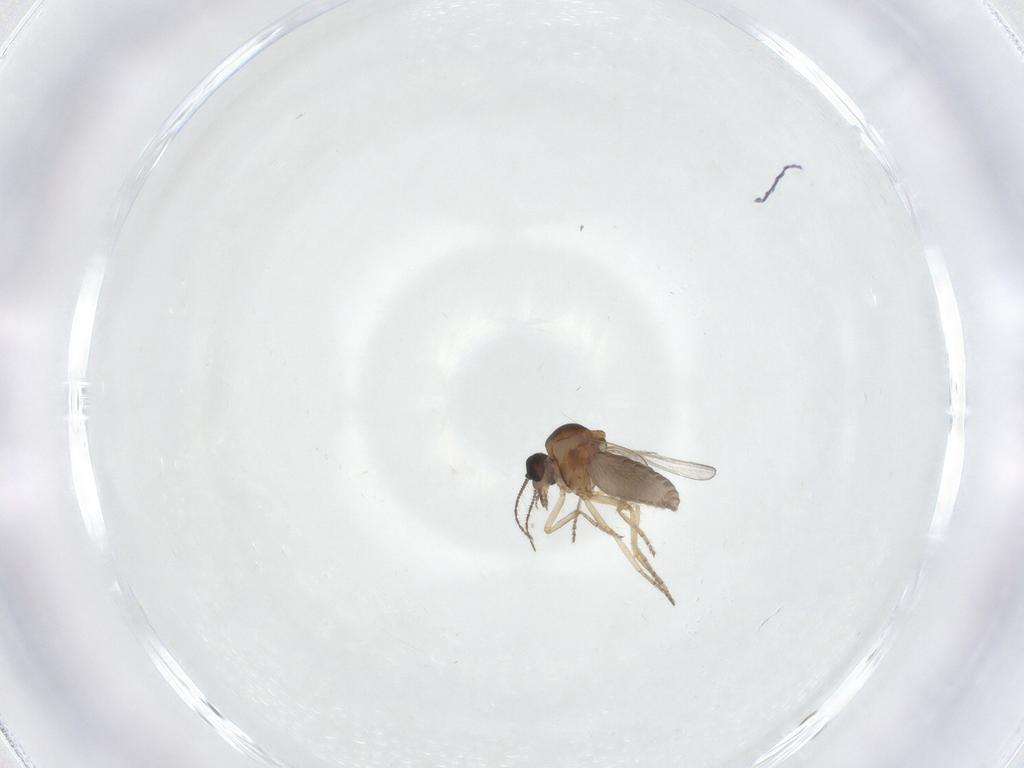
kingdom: Animalia
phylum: Arthropoda
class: Insecta
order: Diptera
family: Ceratopogonidae
